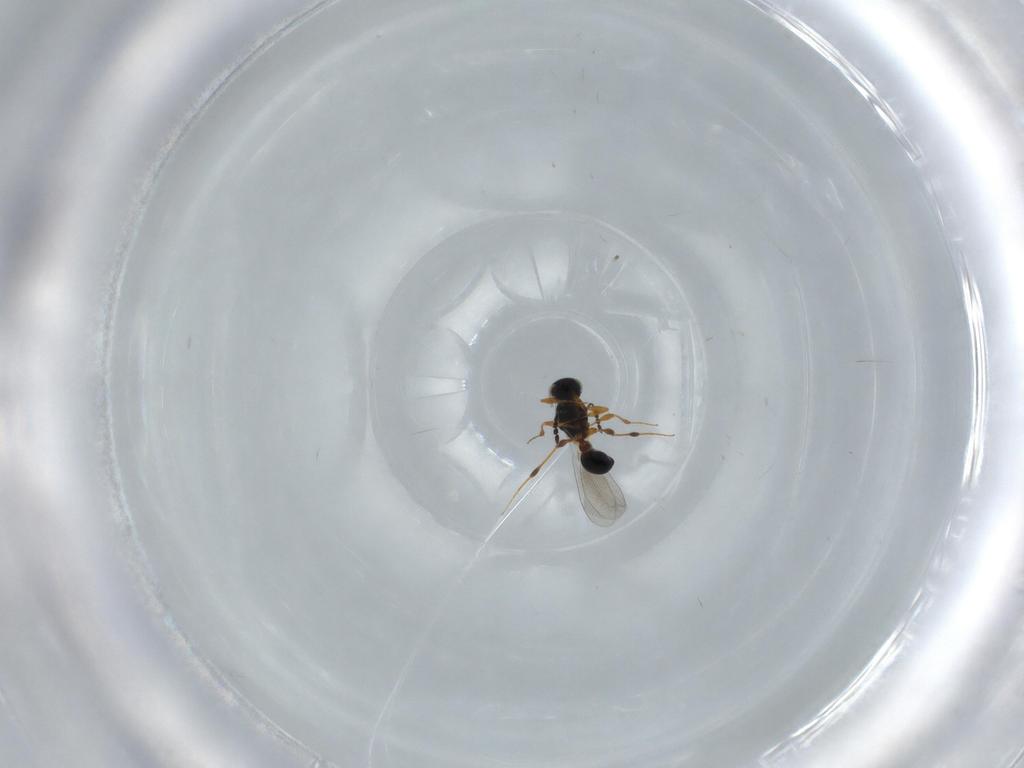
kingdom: Animalia
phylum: Arthropoda
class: Insecta
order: Hymenoptera
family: Platygastridae
